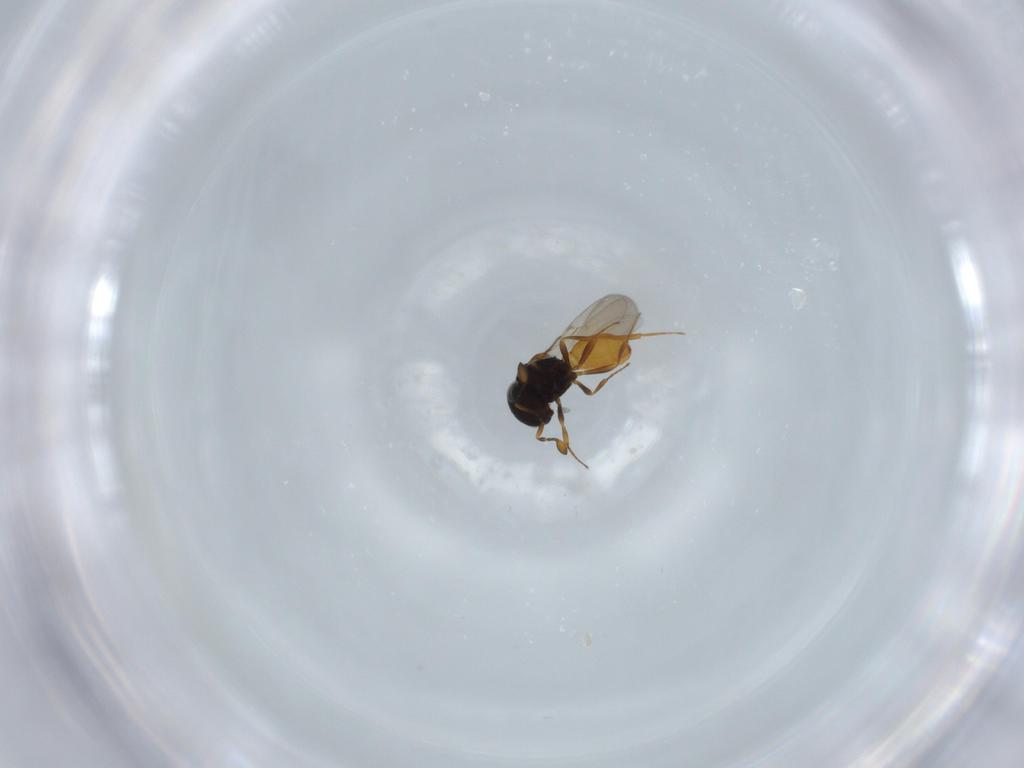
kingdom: Animalia
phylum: Arthropoda
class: Insecta
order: Hymenoptera
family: Scelionidae
